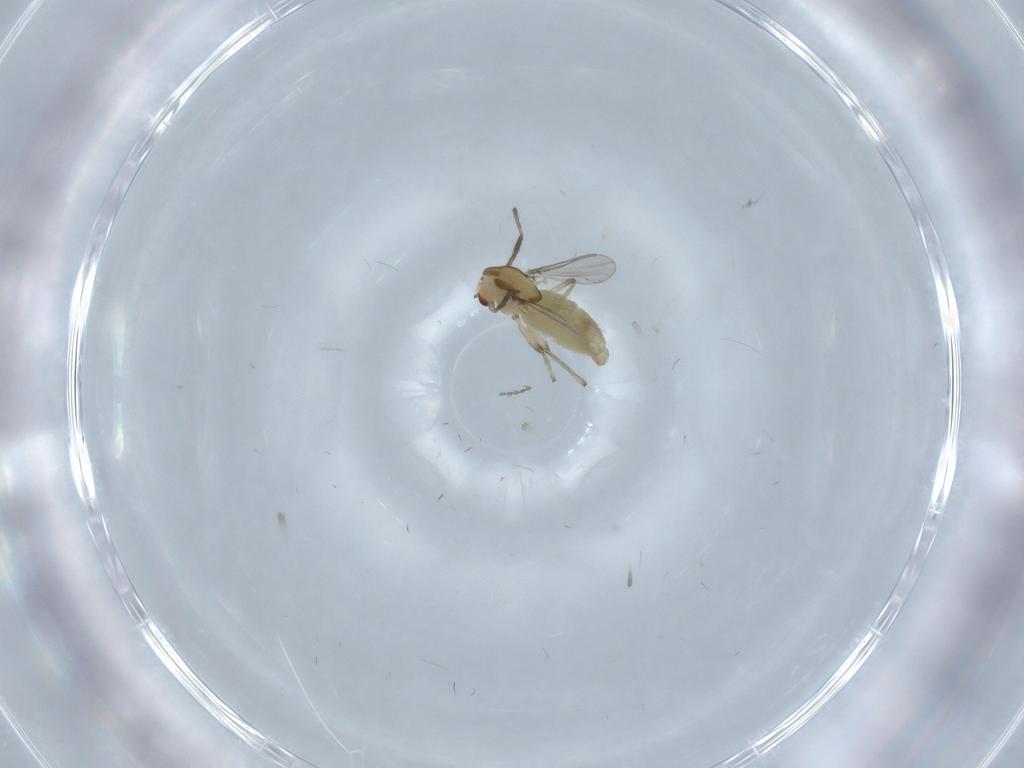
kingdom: Animalia
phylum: Arthropoda
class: Insecta
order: Diptera
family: Chironomidae
